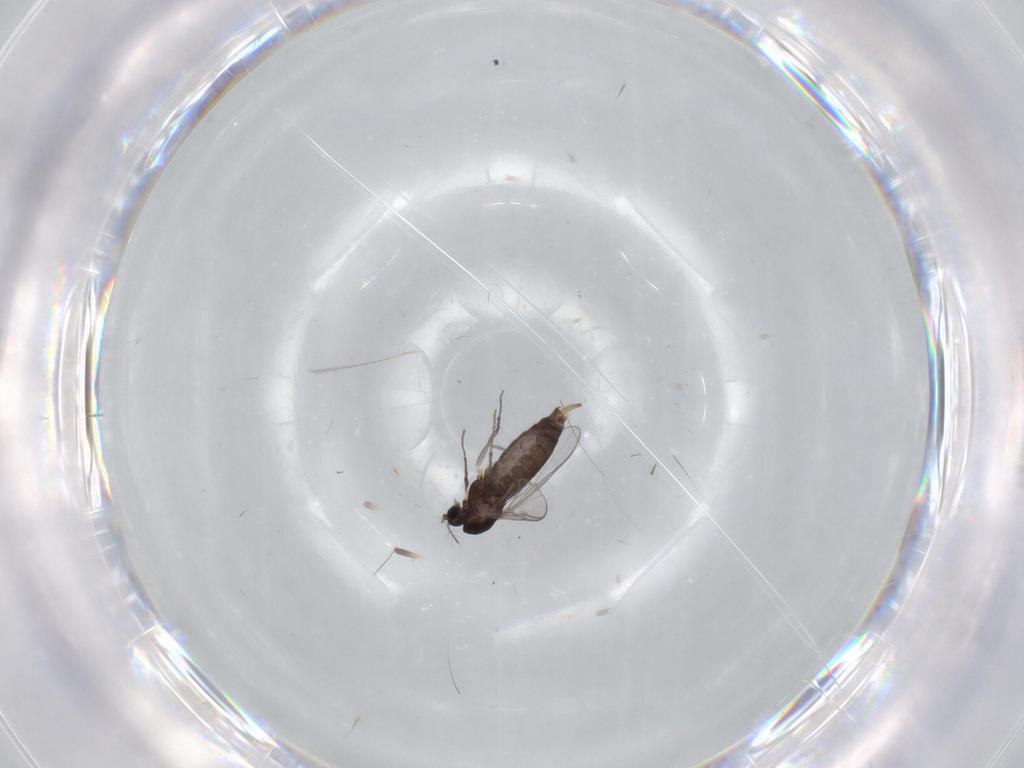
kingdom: Animalia
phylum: Arthropoda
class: Insecta
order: Diptera
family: Chironomidae
